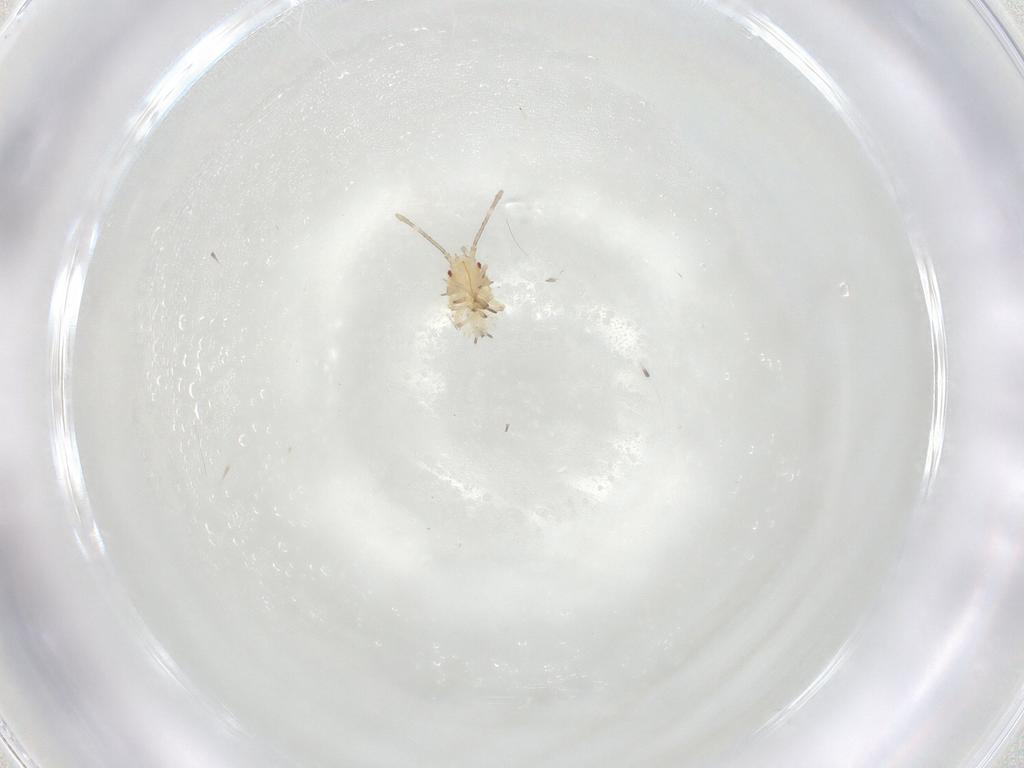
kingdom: Animalia
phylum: Arthropoda
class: Insecta
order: Hemiptera
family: Tingidae
